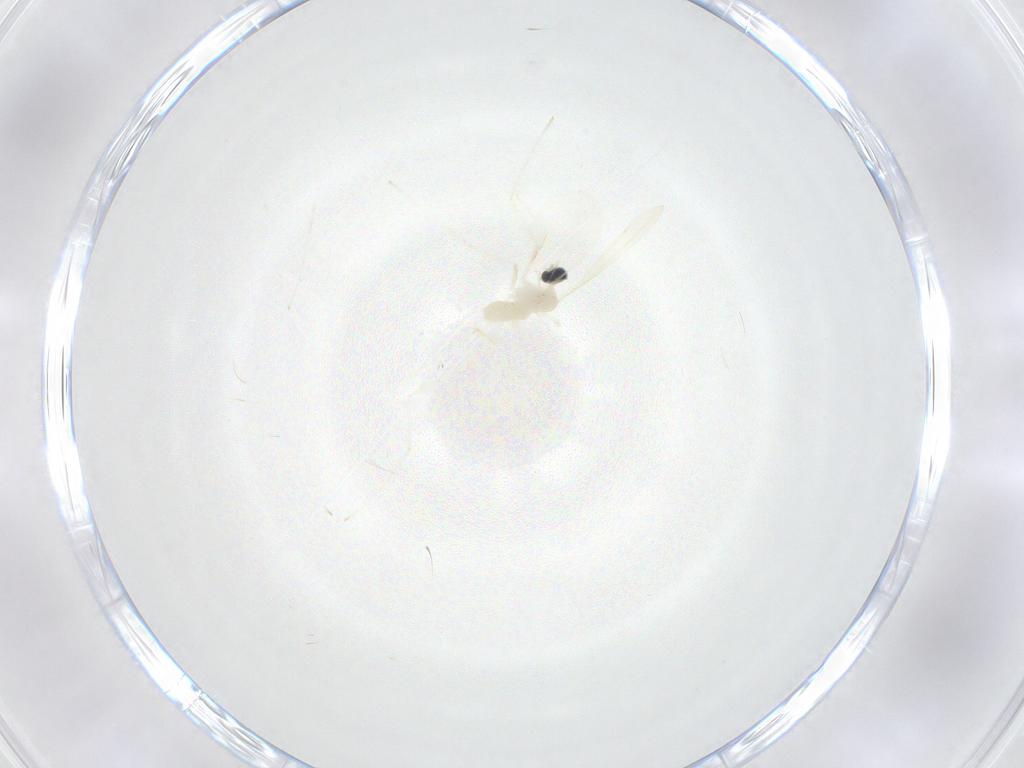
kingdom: Animalia
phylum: Arthropoda
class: Insecta
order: Diptera
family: Cecidomyiidae
